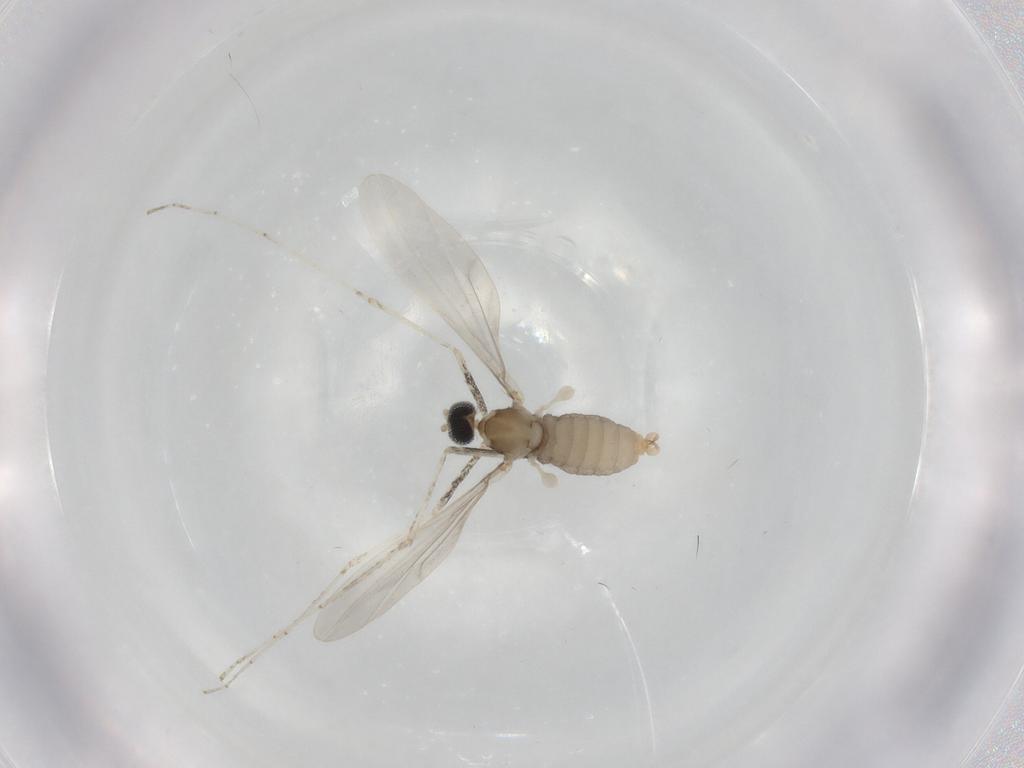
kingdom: Animalia
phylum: Arthropoda
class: Insecta
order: Diptera
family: Cecidomyiidae
